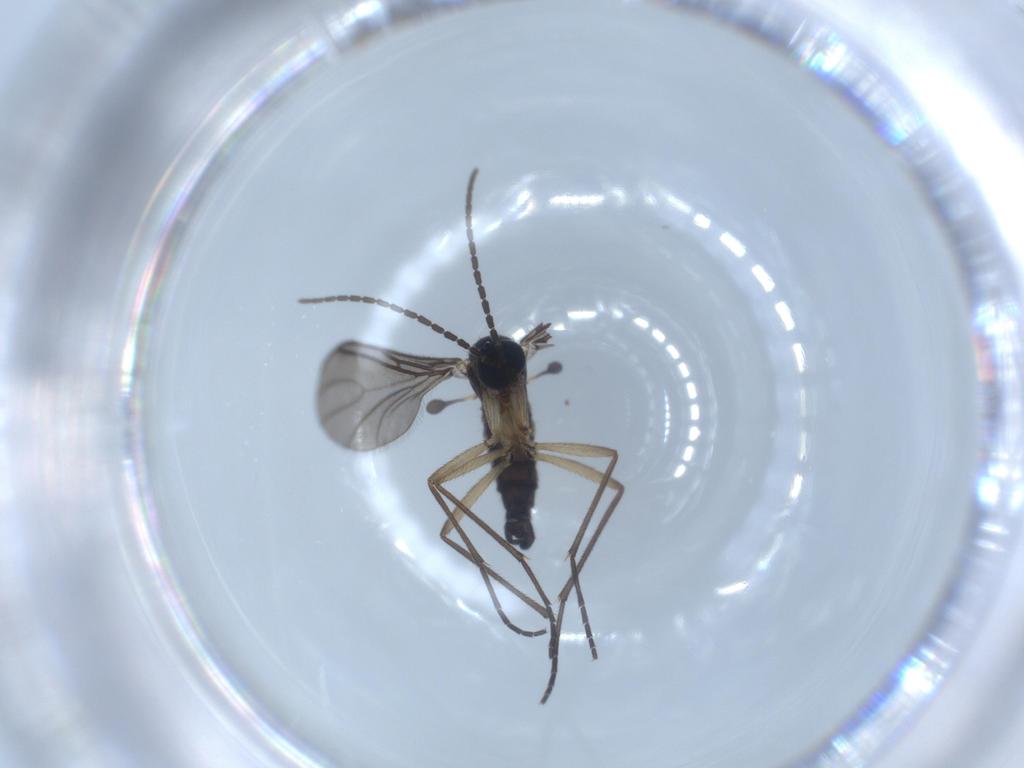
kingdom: Animalia
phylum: Arthropoda
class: Insecta
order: Diptera
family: Sciaridae
